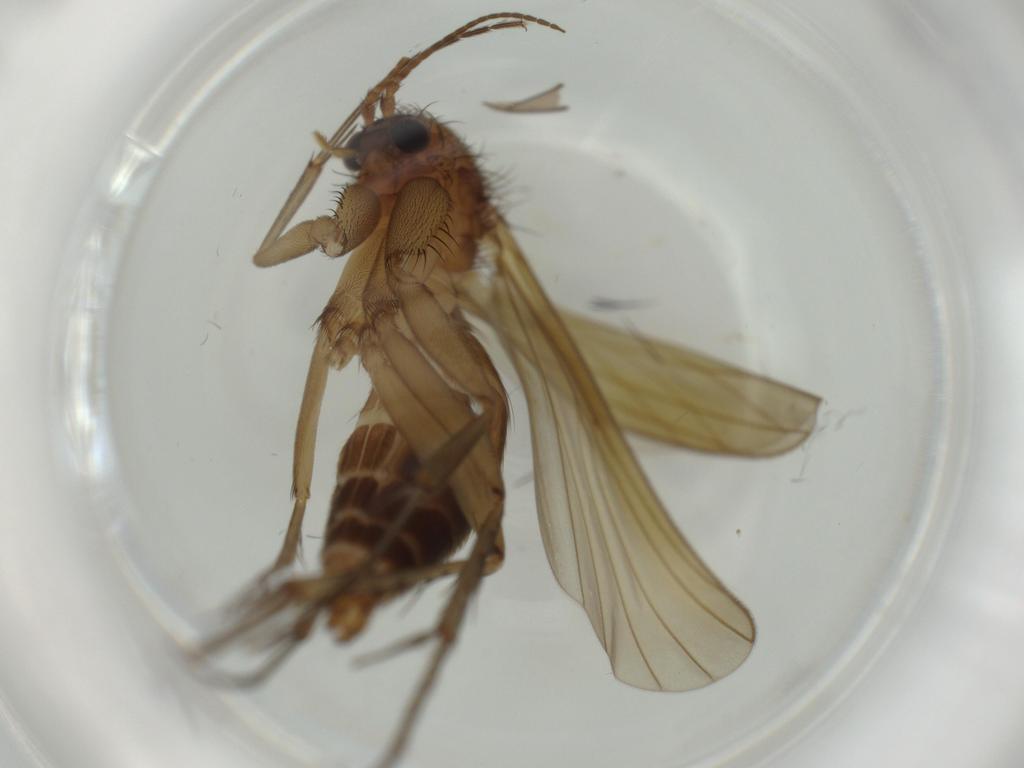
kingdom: Animalia
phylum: Arthropoda
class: Insecta
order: Diptera
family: Mycetophilidae
